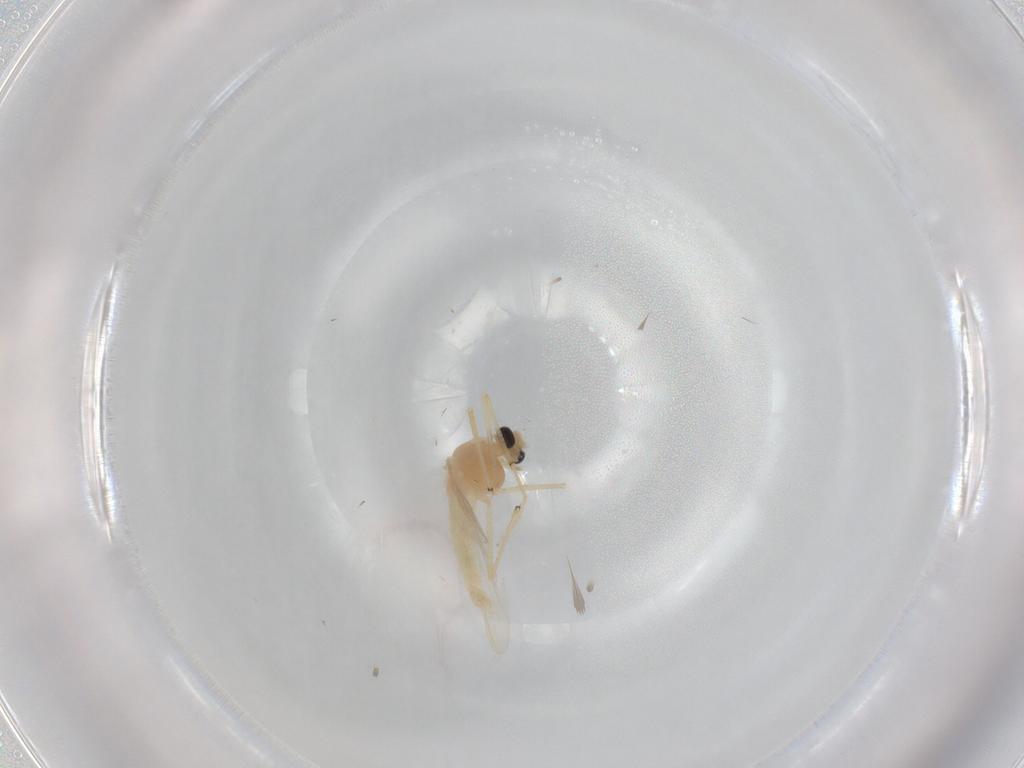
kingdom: Animalia
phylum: Arthropoda
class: Insecta
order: Diptera
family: Chironomidae
